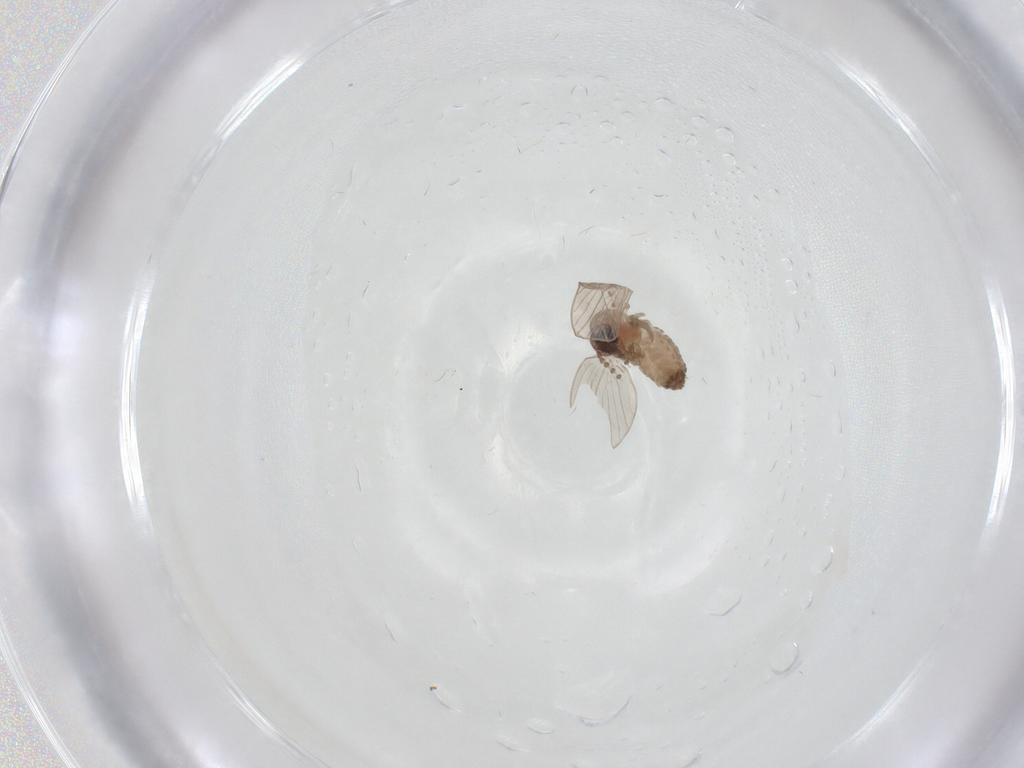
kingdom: Animalia
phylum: Arthropoda
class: Insecta
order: Diptera
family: Psychodidae
